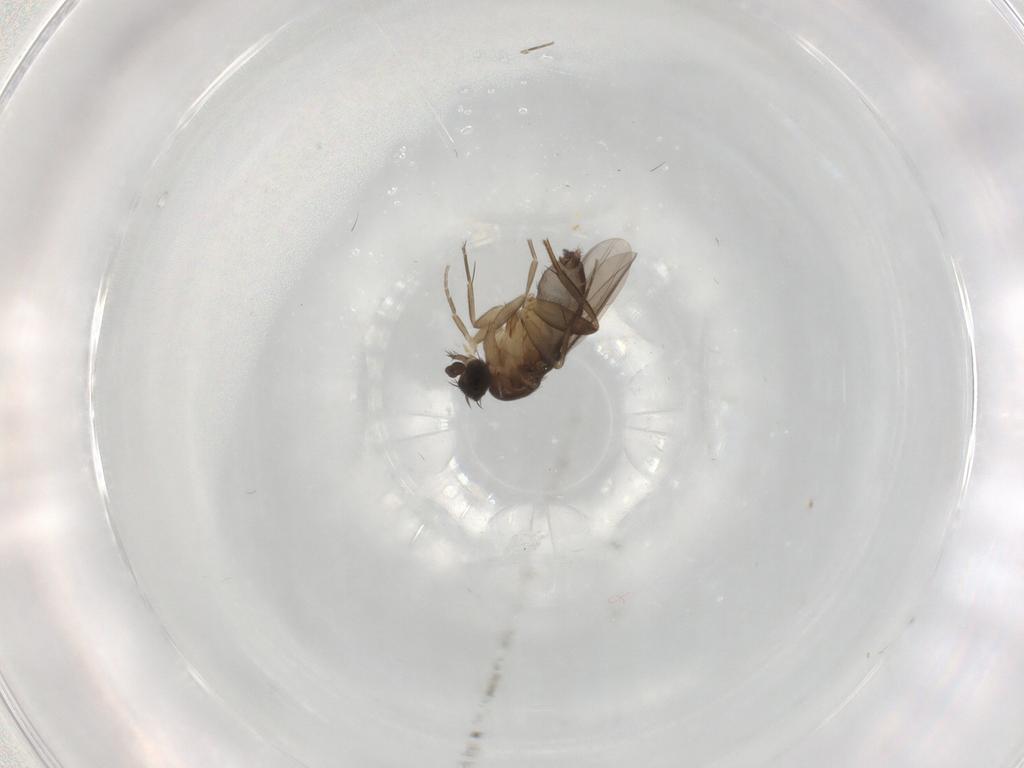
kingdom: Animalia
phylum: Arthropoda
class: Insecta
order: Diptera
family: Phoridae
